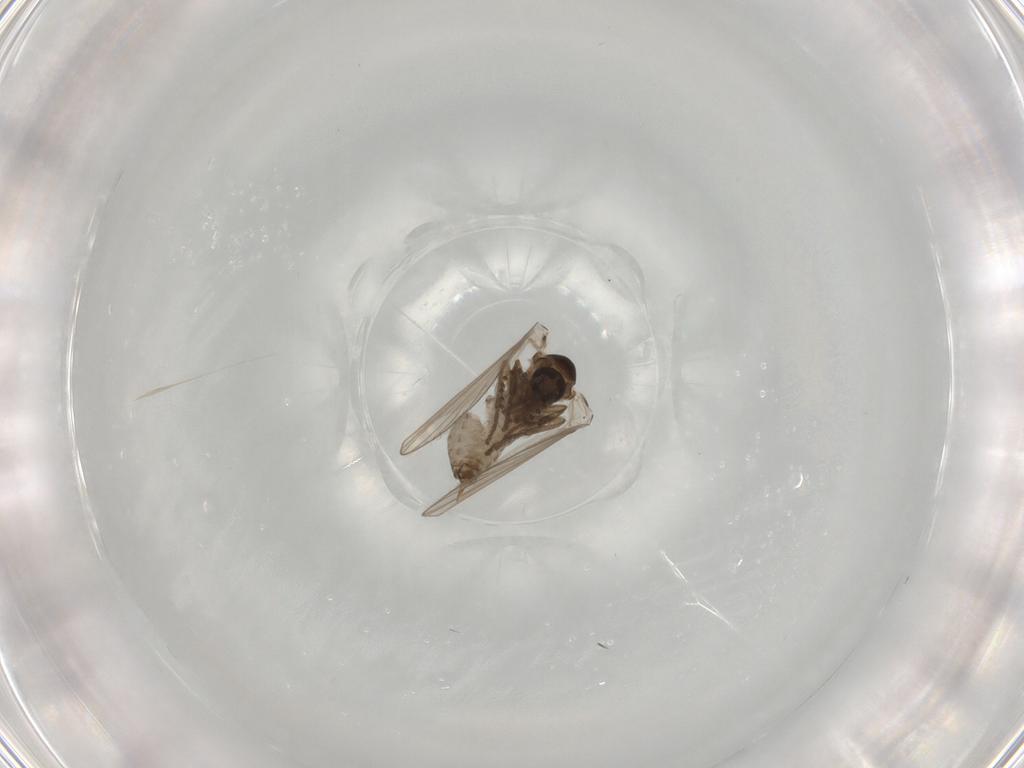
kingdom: Animalia
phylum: Arthropoda
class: Insecta
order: Diptera
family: Psychodidae
